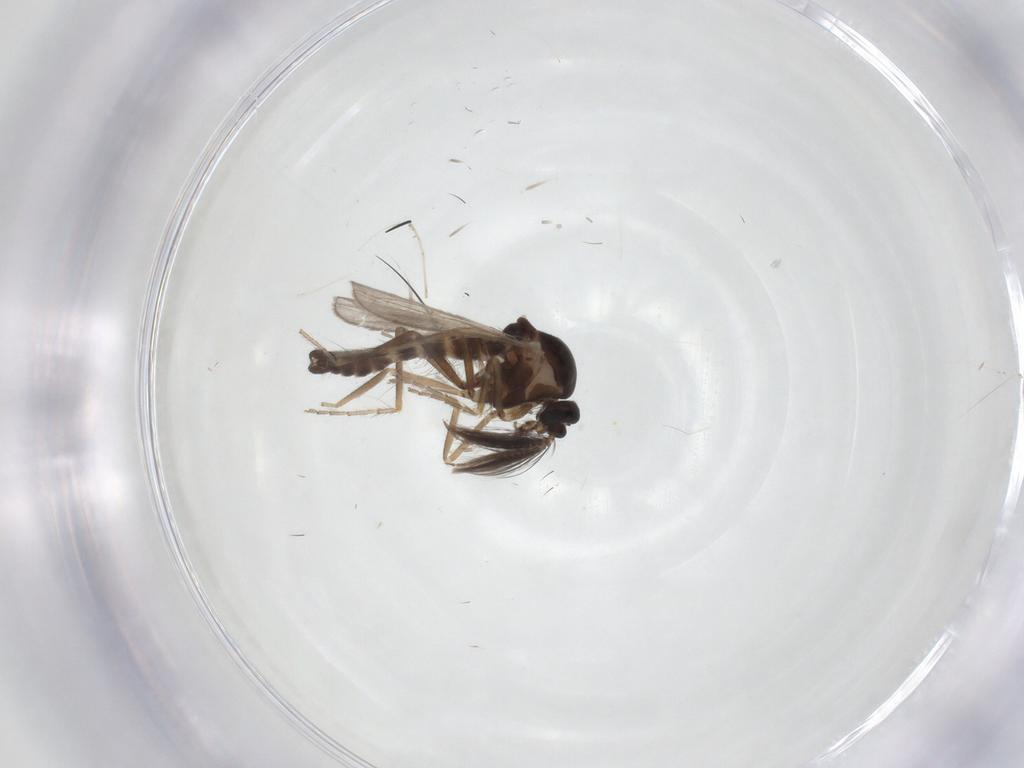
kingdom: Animalia
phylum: Arthropoda
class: Insecta
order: Diptera
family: Ceratopogonidae
